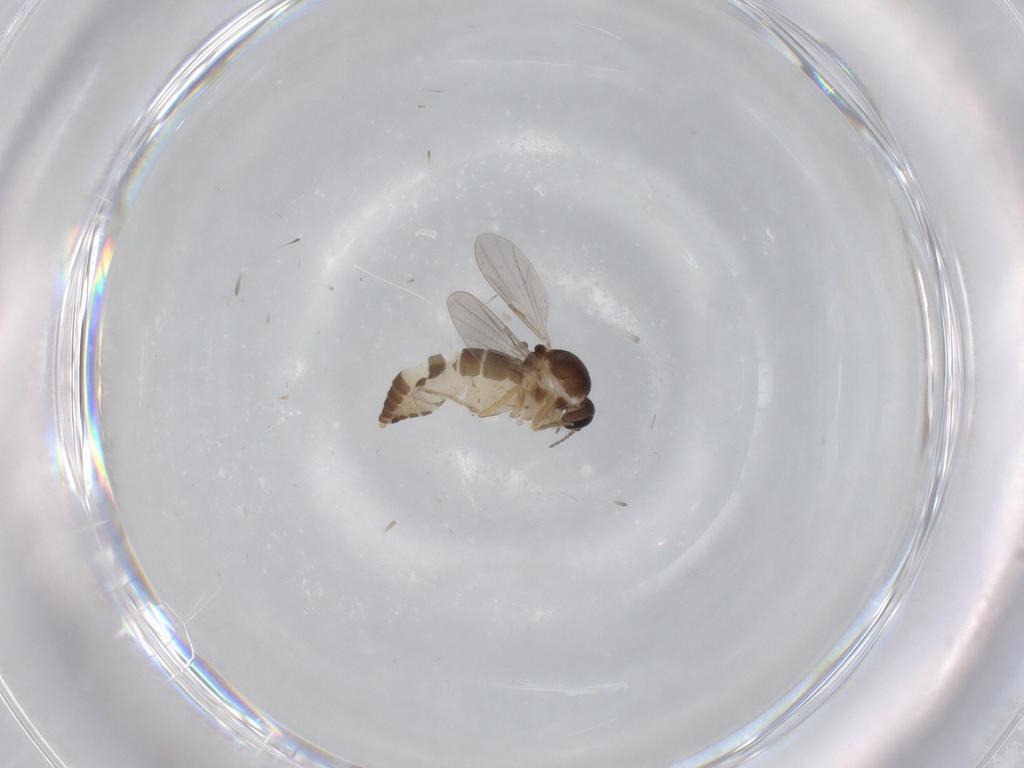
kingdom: Animalia
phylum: Arthropoda
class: Insecta
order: Diptera
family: Ceratopogonidae
